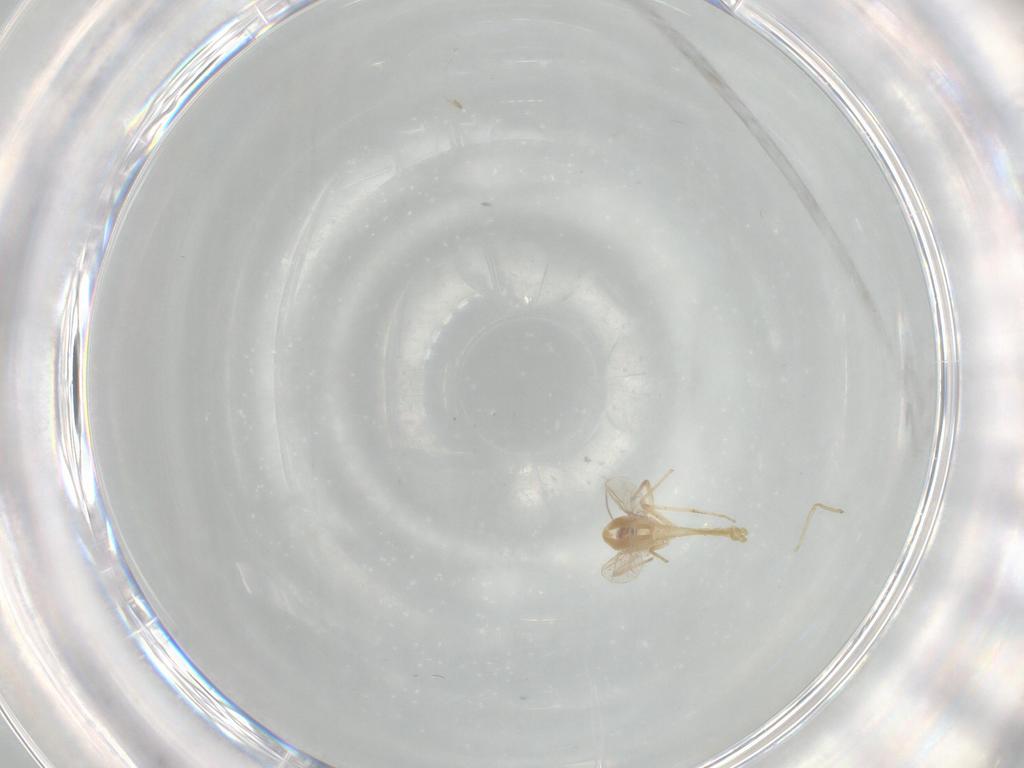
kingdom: Animalia
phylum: Arthropoda
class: Insecta
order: Diptera
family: Chironomidae
